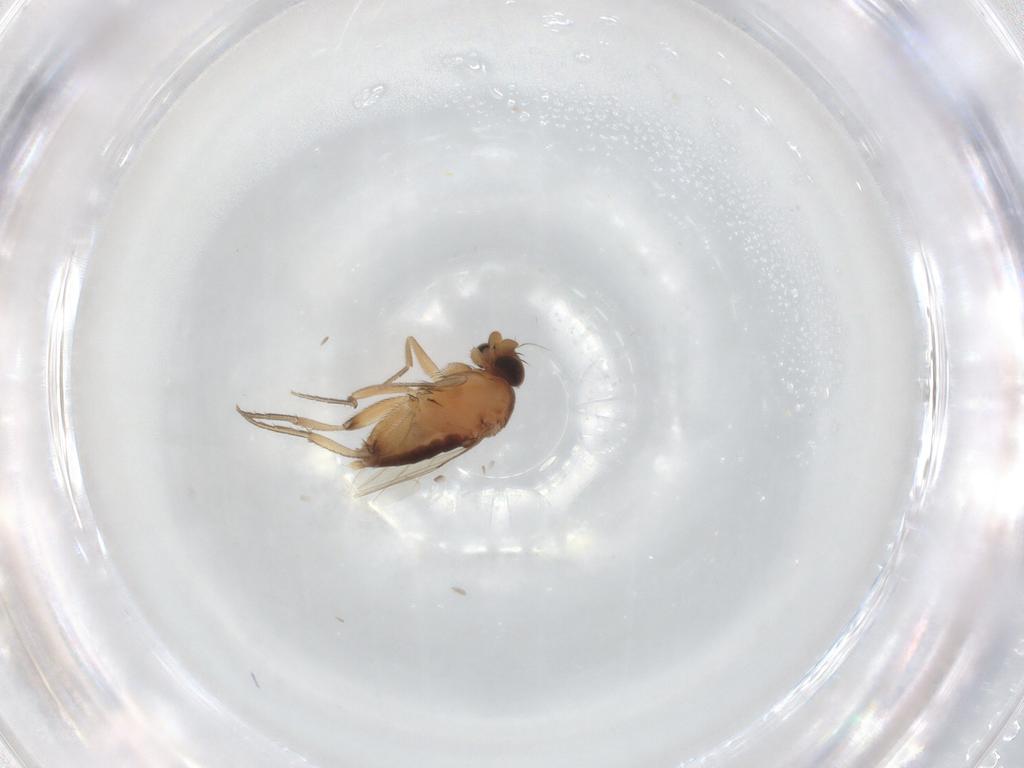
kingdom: Animalia
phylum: Arthropoda
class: Insecta
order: Diptera
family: Phoridae
